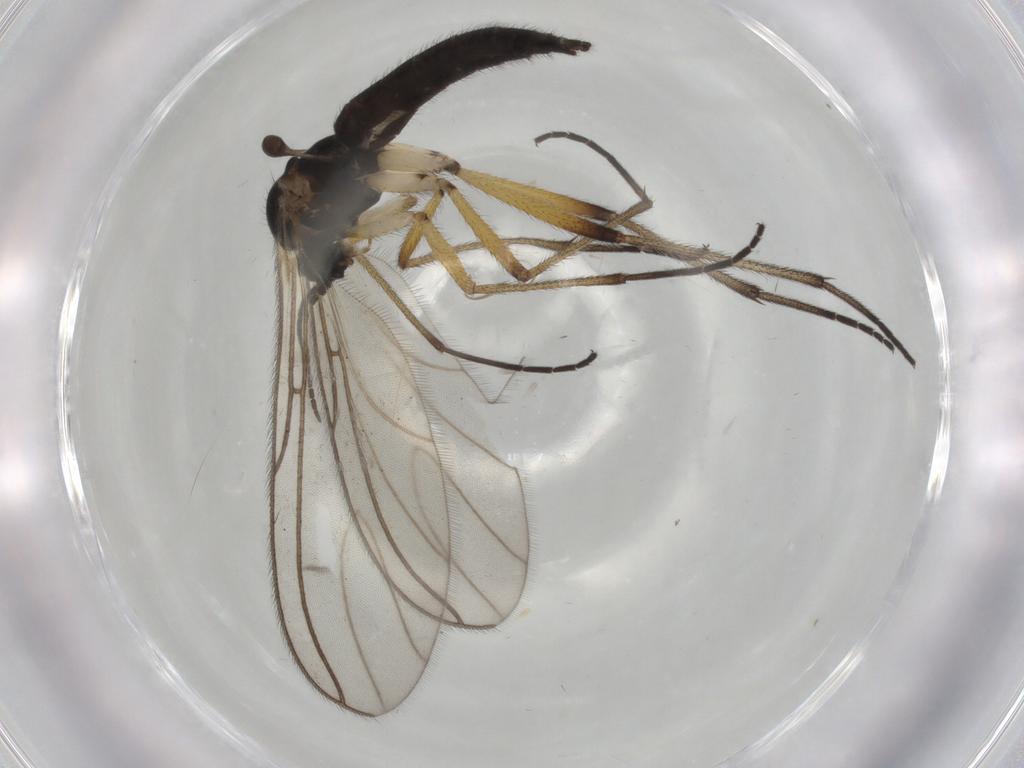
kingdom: Animalia
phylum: Arthropoda
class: Insecta
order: Diptera
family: Sciaridae
